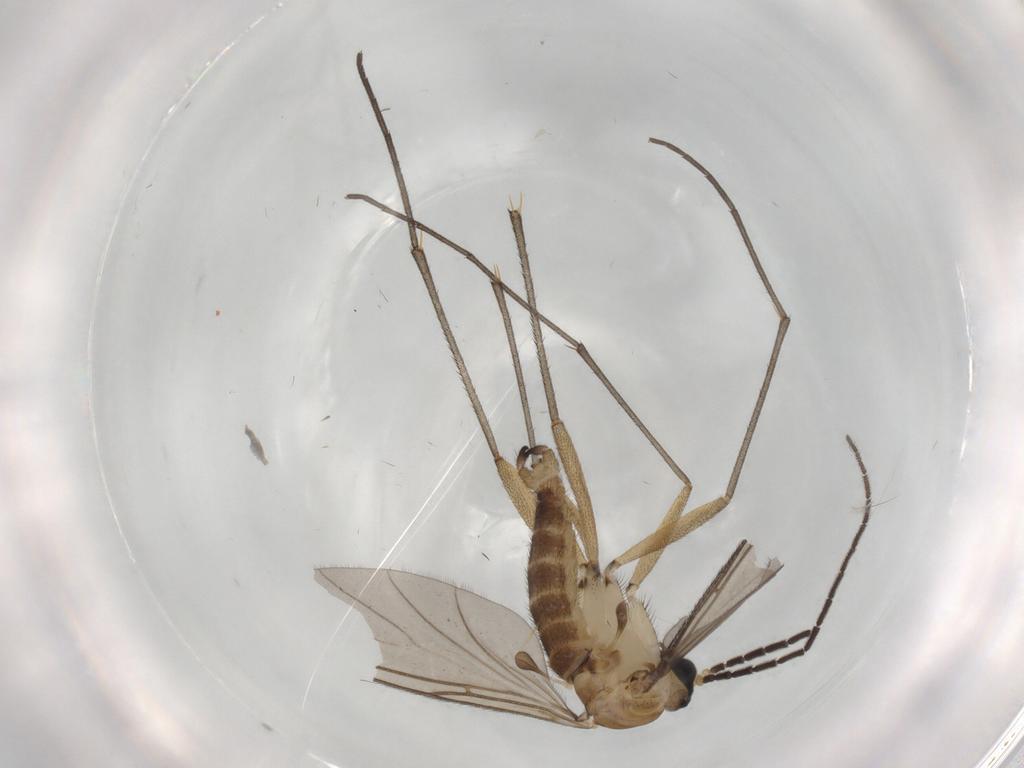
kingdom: Animalia
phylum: Arthropoda
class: Insecta
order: Diptera
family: Sciaridae
